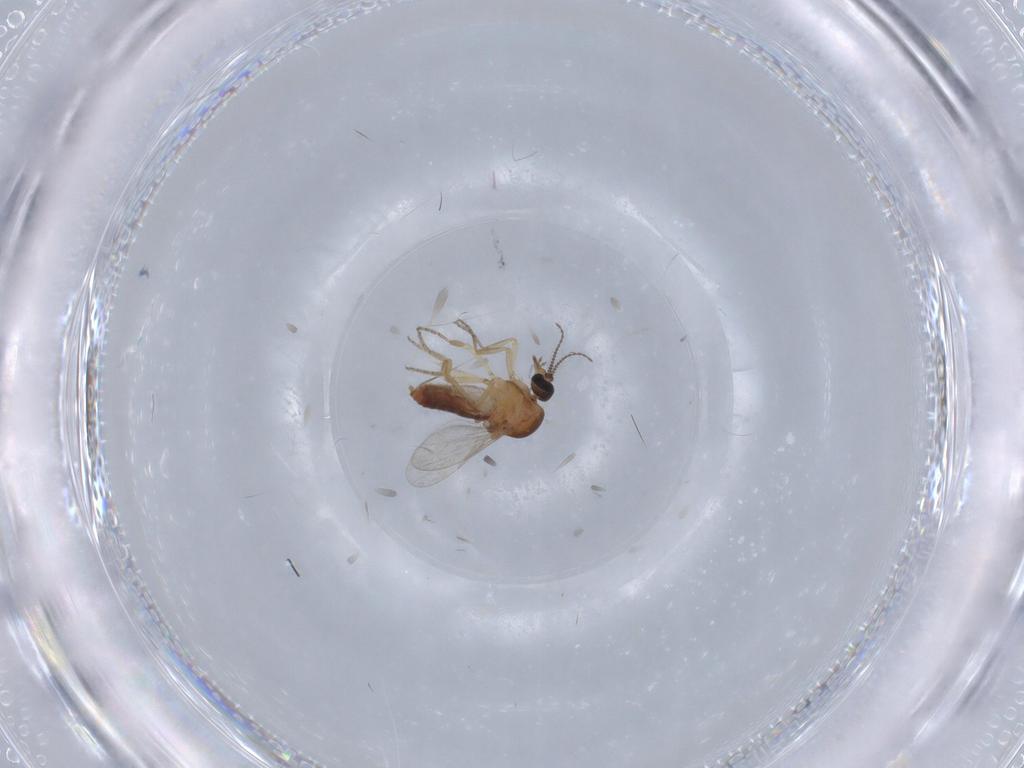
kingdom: Animalia
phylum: Arthropoda
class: Insecta
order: Diptera
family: Ceratopogonidae
